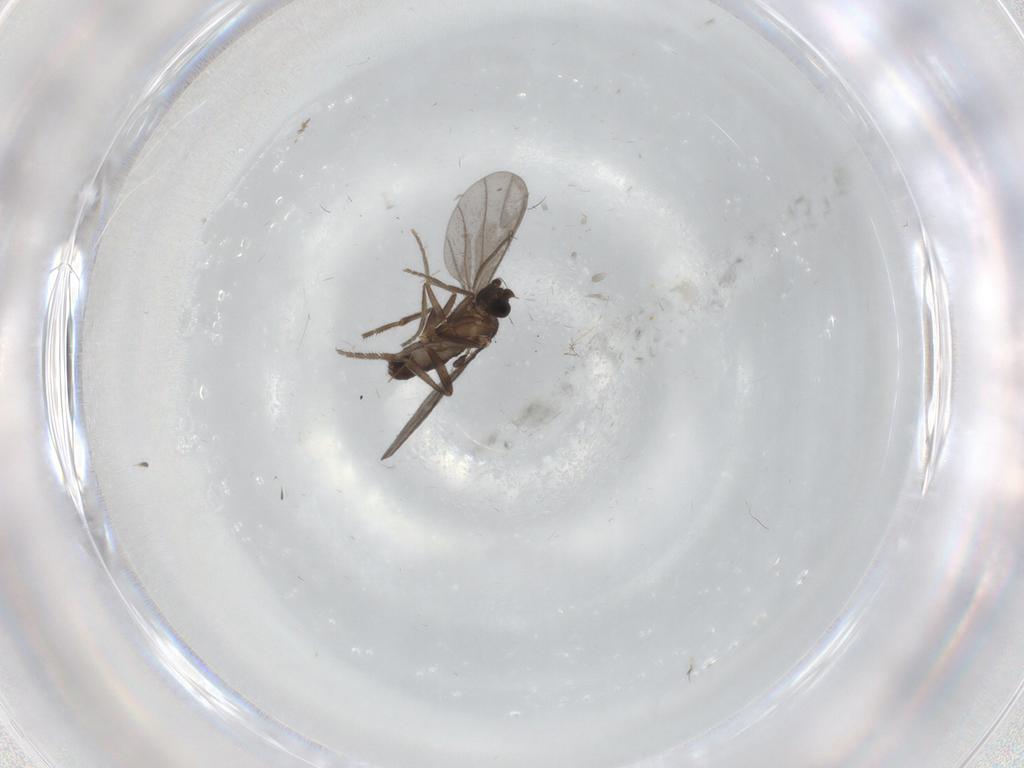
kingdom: Animalia
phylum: Arthropoda
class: Insecta
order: Diptera
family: Phoridae
